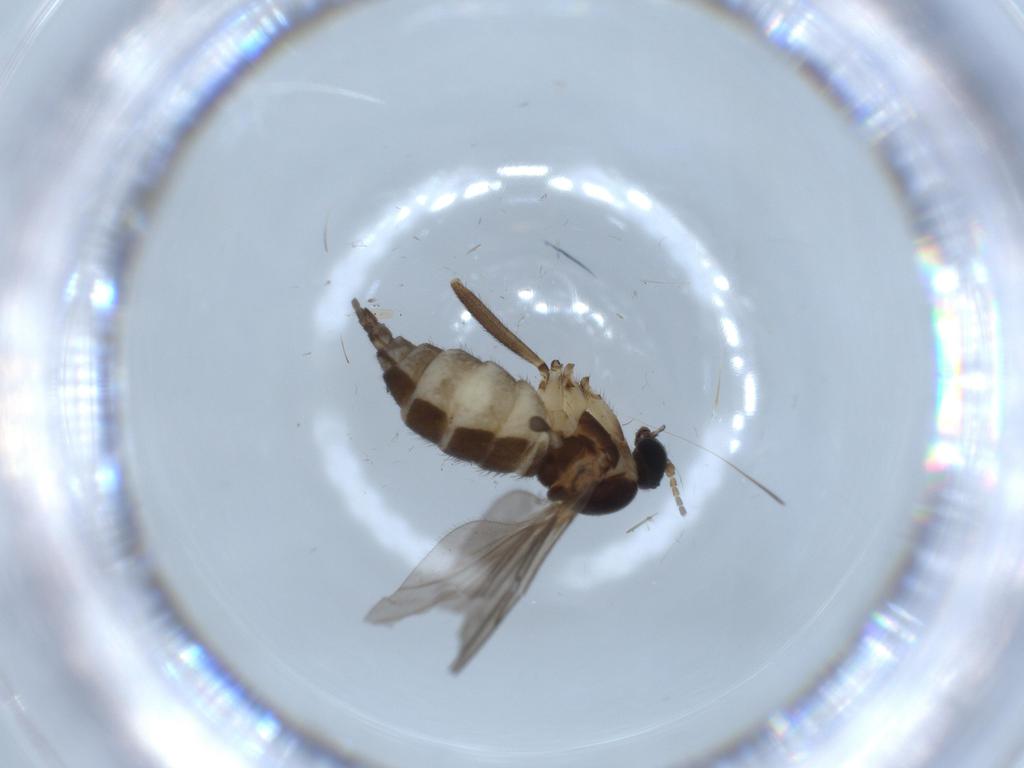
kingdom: Animalia
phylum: Arthropoda
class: Insecta
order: Diptera
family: Sciaridae
